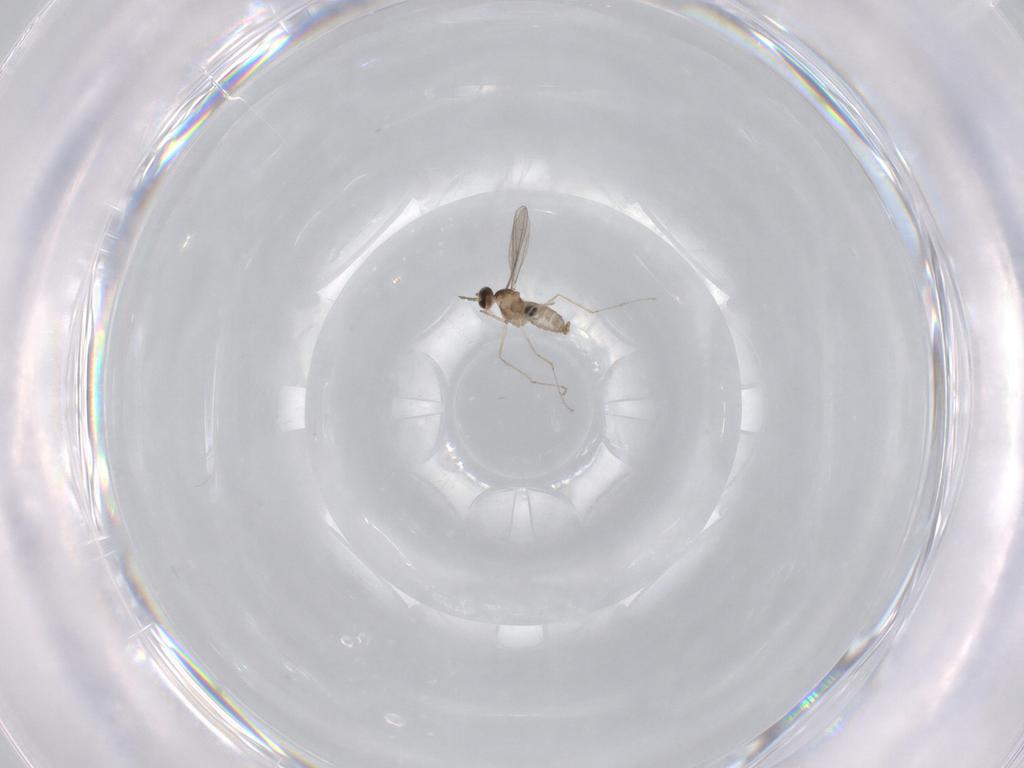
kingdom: Animalia
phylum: Arthropoda
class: Insecta
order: Diptera
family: Cecidomyiidae
